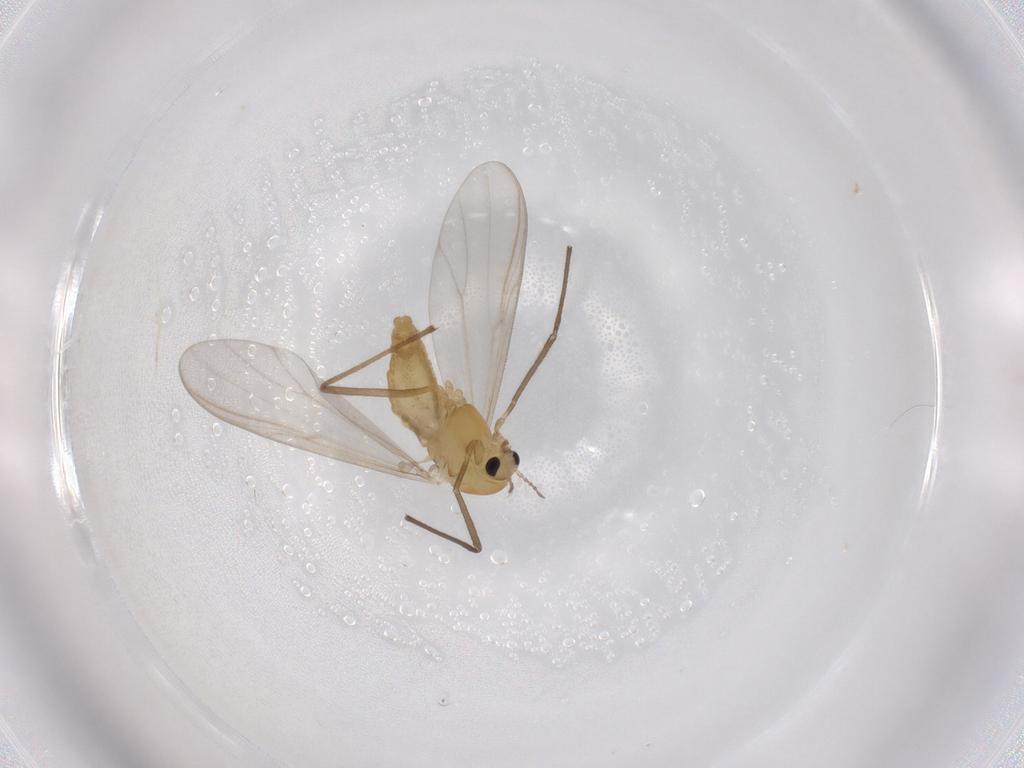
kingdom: Animalia
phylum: Arthropoda
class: Insecta
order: Diptera
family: Chironomidae
